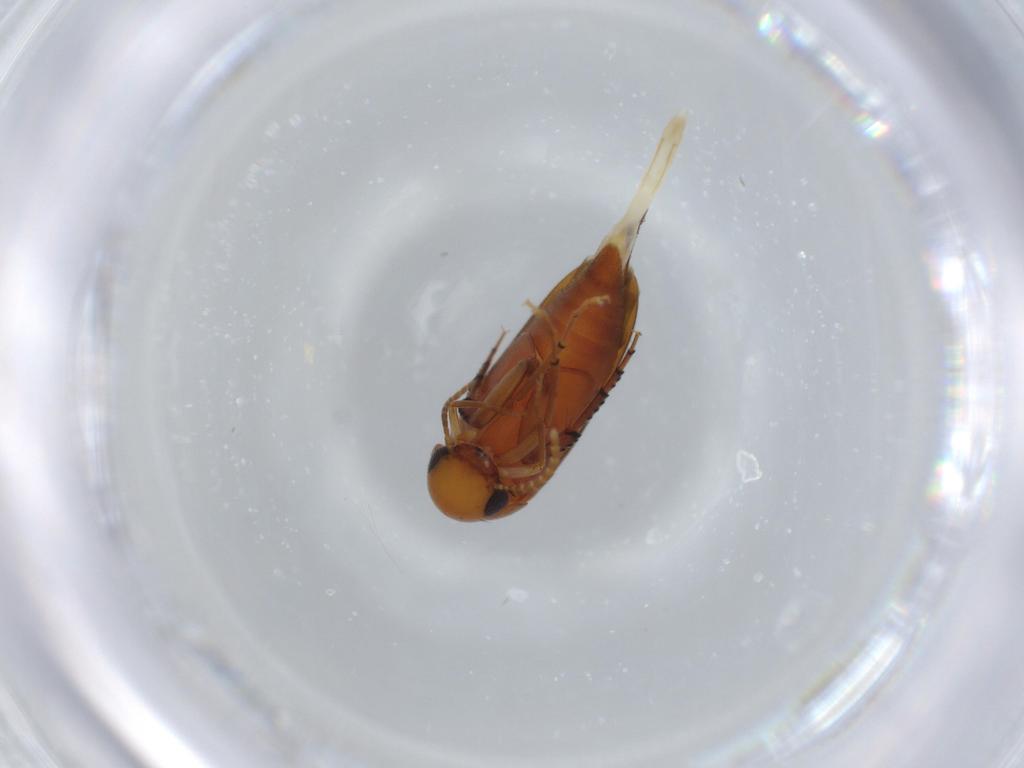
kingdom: Animalia
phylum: Arthropoda
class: Insecta
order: Coleoptera
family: Mordellidae
